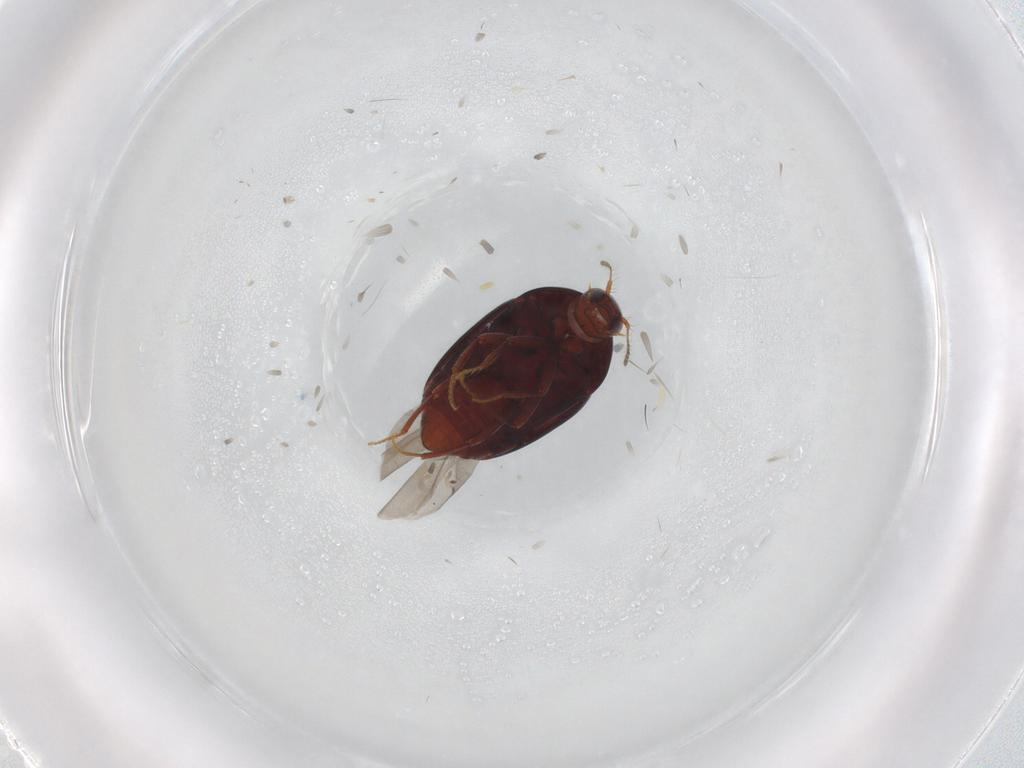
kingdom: Animalia
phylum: Arthropoda
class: Insecta
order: Coleoptera
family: Staphylinidae
